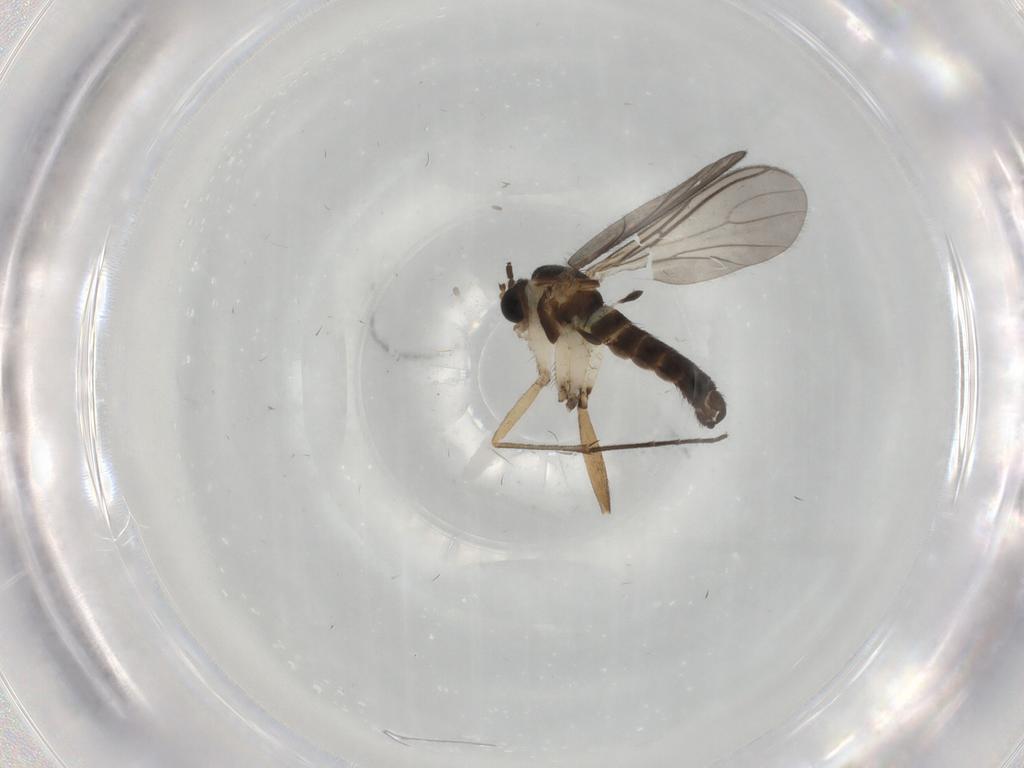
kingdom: Animalia
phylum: Arthropoda
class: Insecta
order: Diptera
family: Sciaridae
